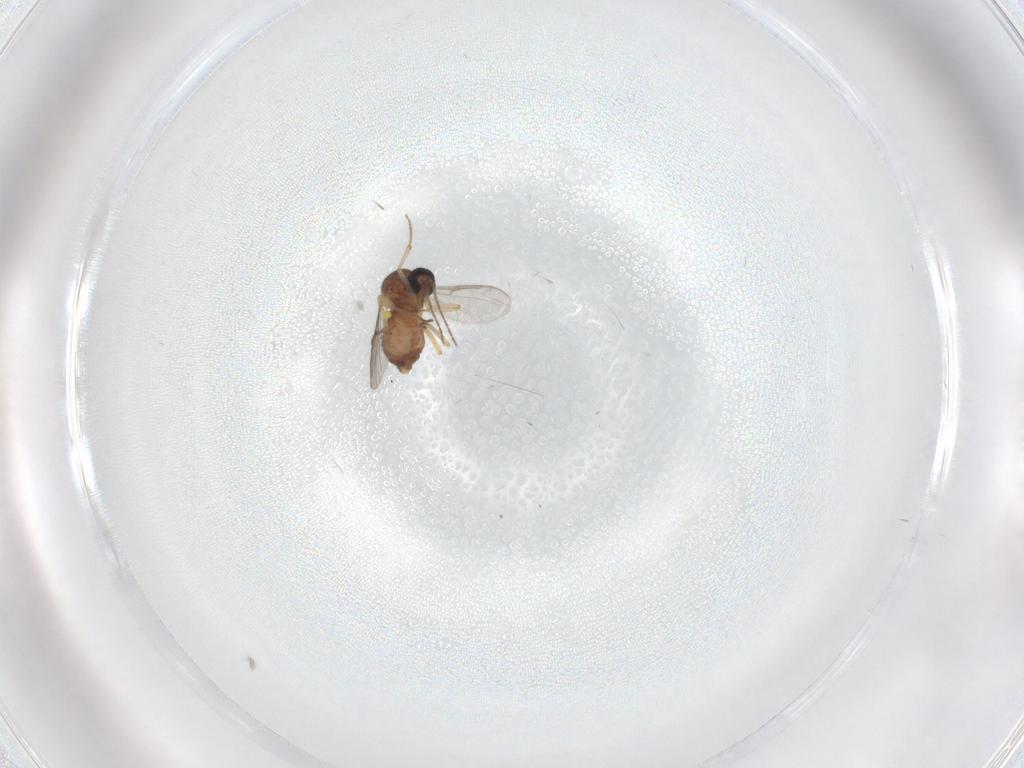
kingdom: Animalia
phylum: Arthropoda
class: Insecta
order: Diptera
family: Ceratopogonidae
